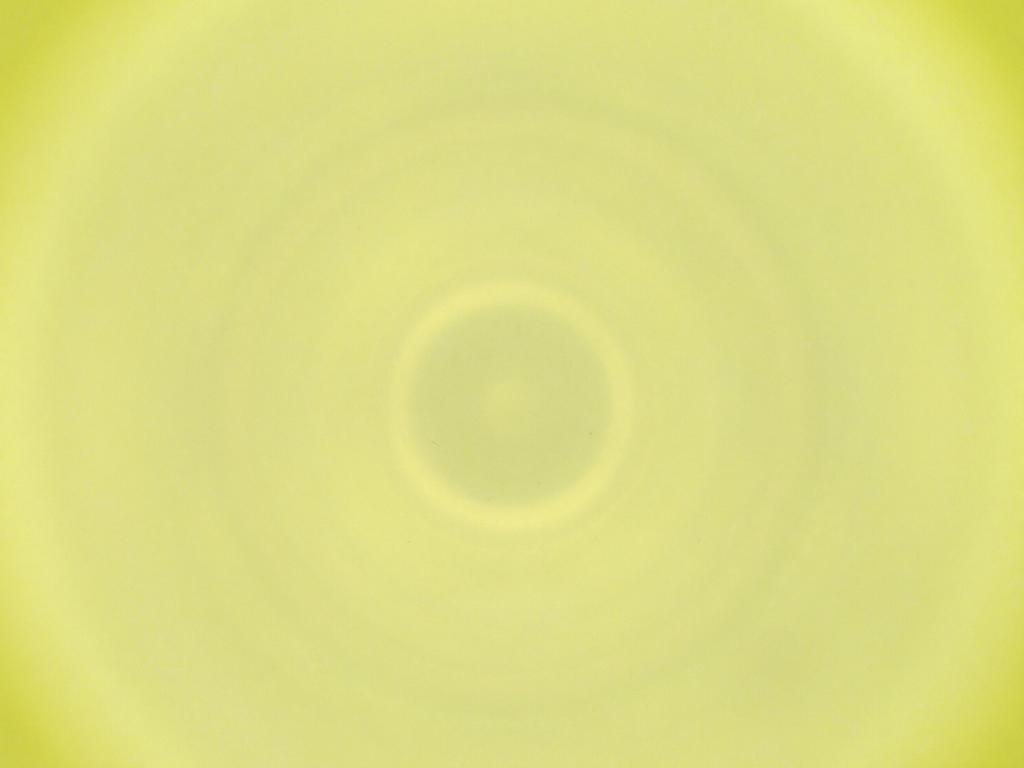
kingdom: Animalia
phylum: Arthropoda
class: Insecta
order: Diptera
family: Cecidomyiidae
